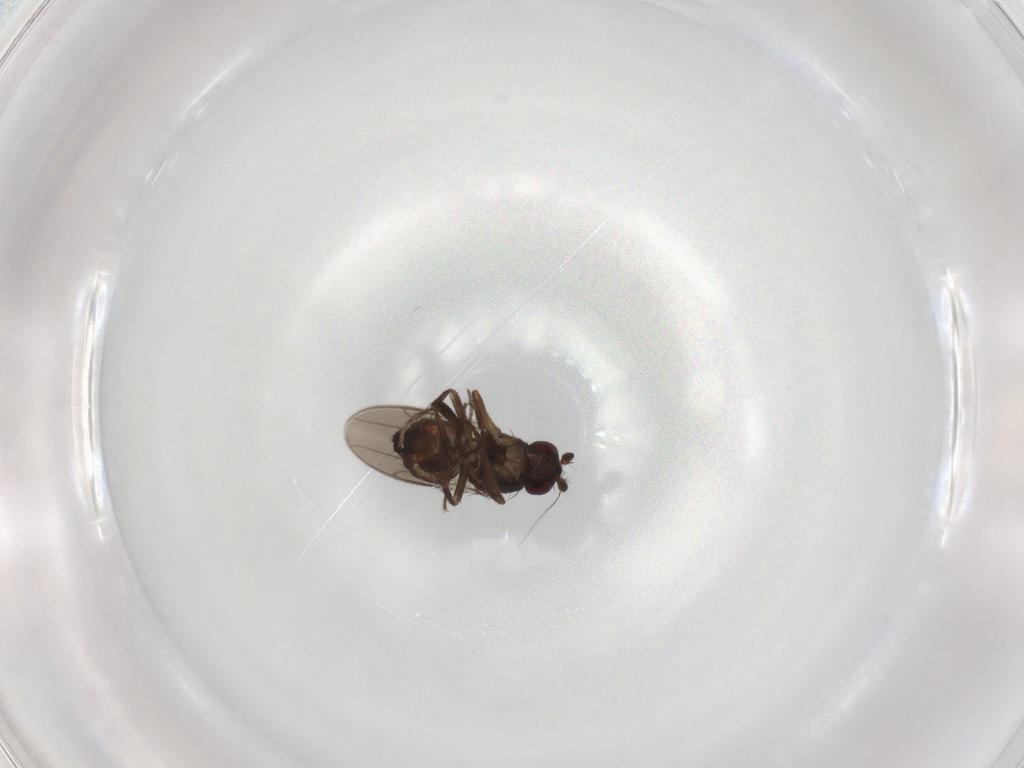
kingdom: Animalia
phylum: Arthropoda
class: Insecta
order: Diptera
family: Sphaeroceridae
